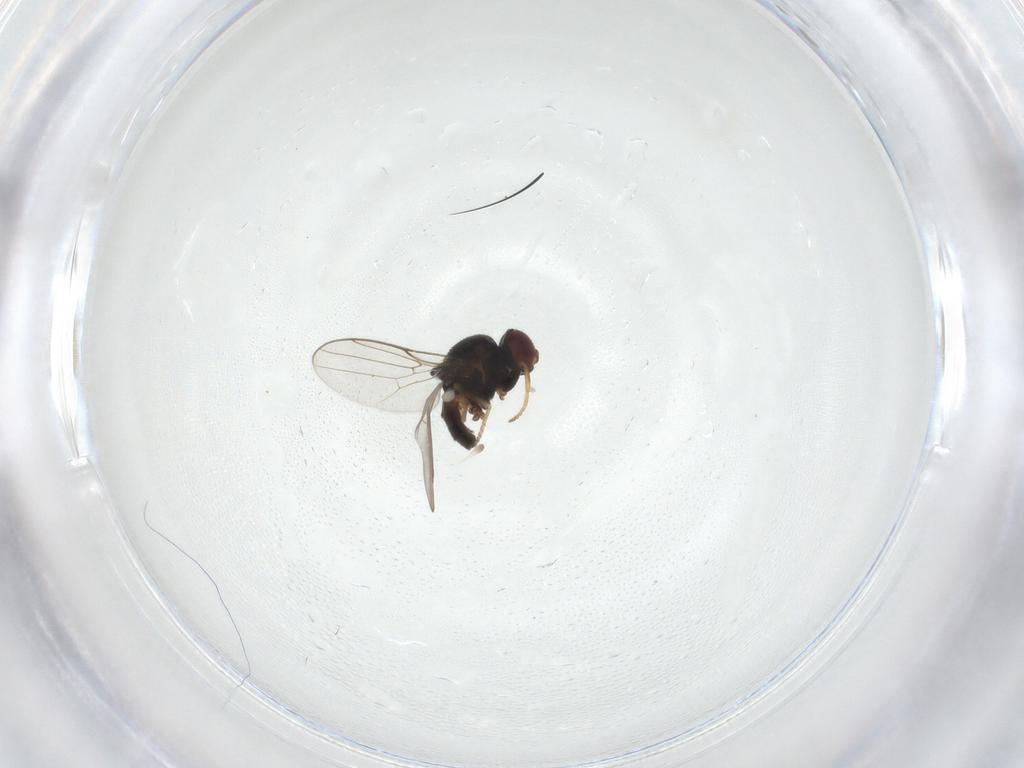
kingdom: Animalia
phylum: Arthropoda
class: Insecta
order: Diptera
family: Chloropidae
